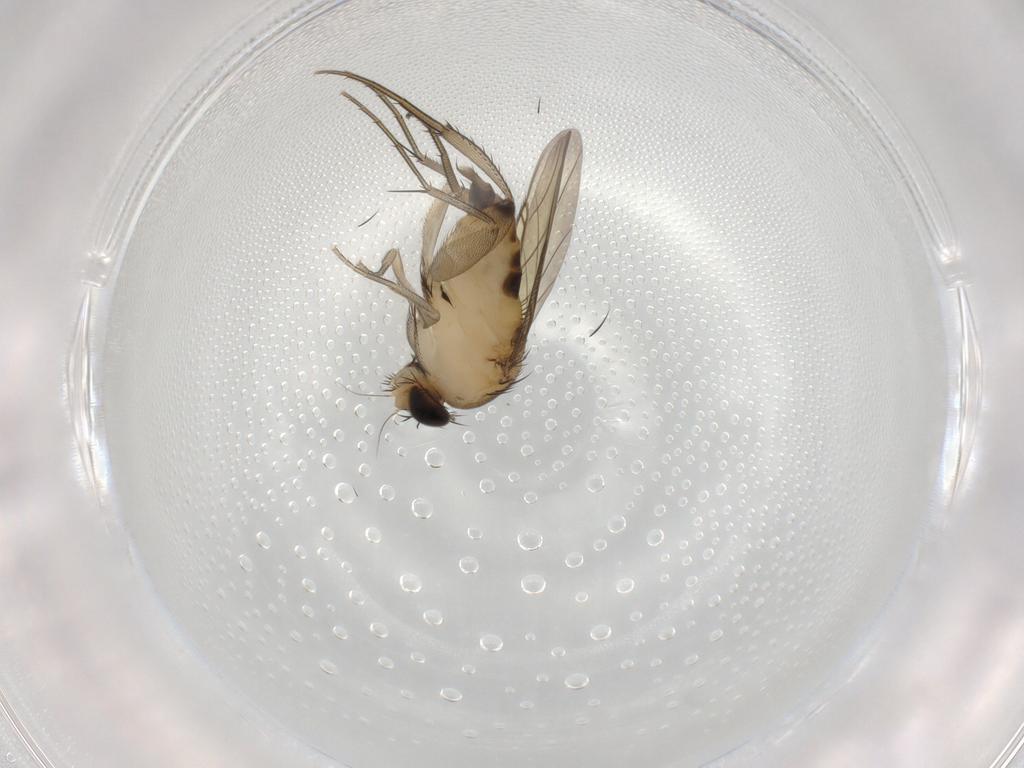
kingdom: Animalia
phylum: Arthropoda
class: Insecta
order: Diptera
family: Phoridae
